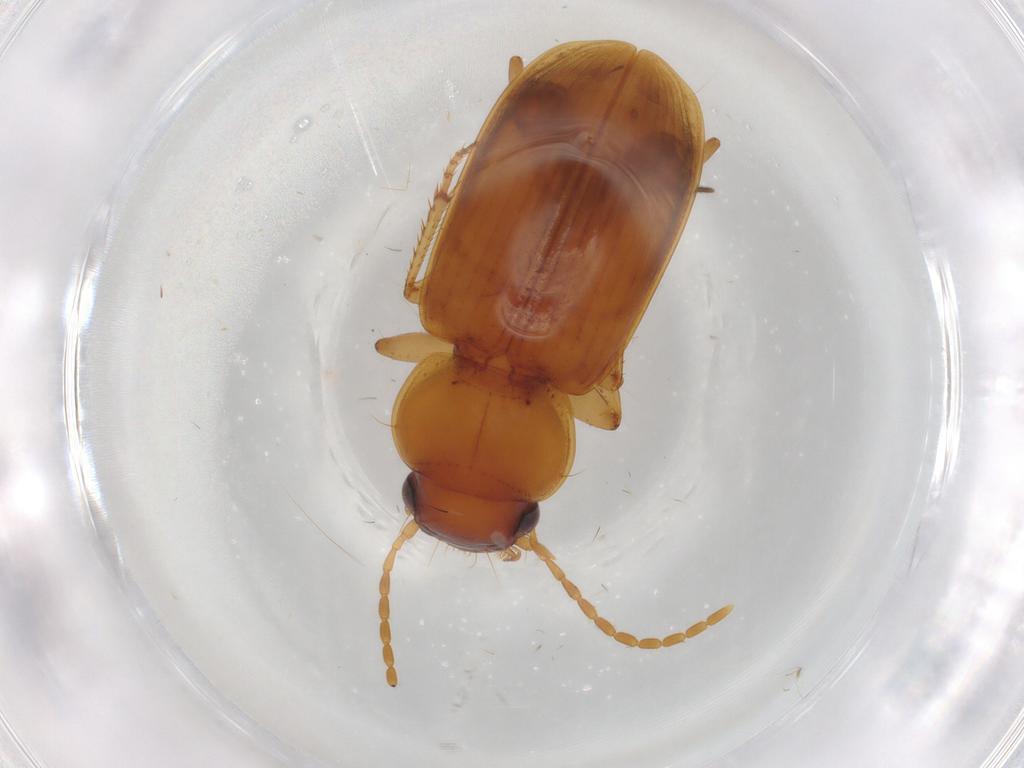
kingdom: Animalia
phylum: Arthropoda
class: Insecta
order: Coleoptera
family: Carabidae
